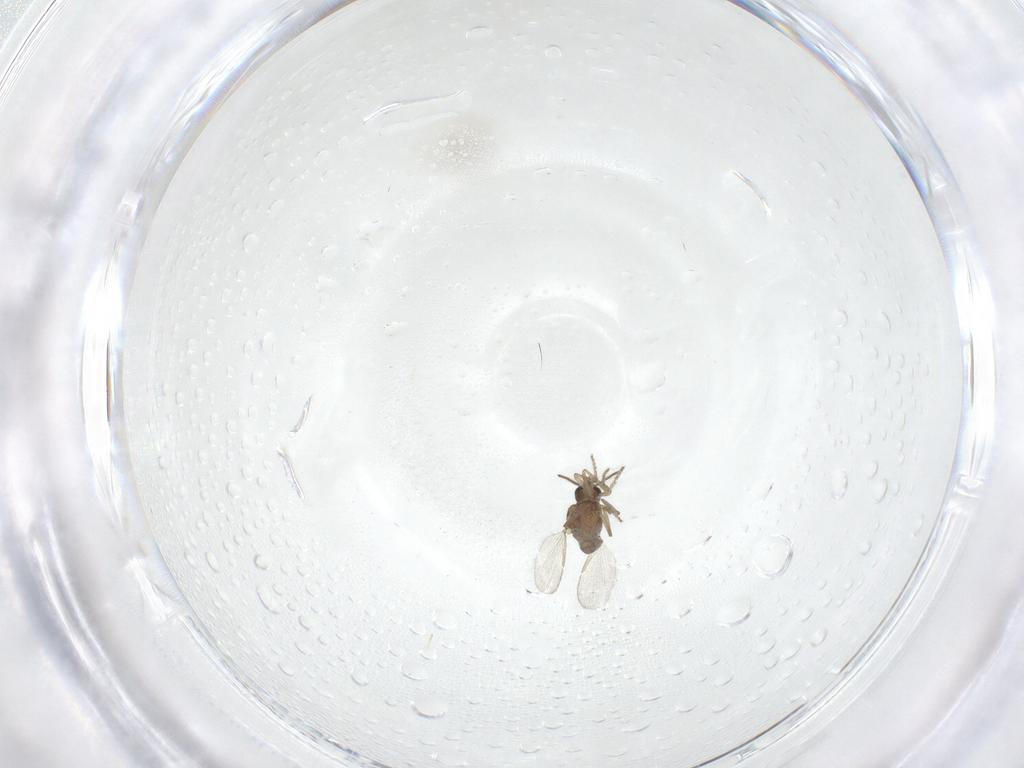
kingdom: Animalia
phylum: Arthropoda
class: Insecta
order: Diptera
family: Ceratopogonidae
